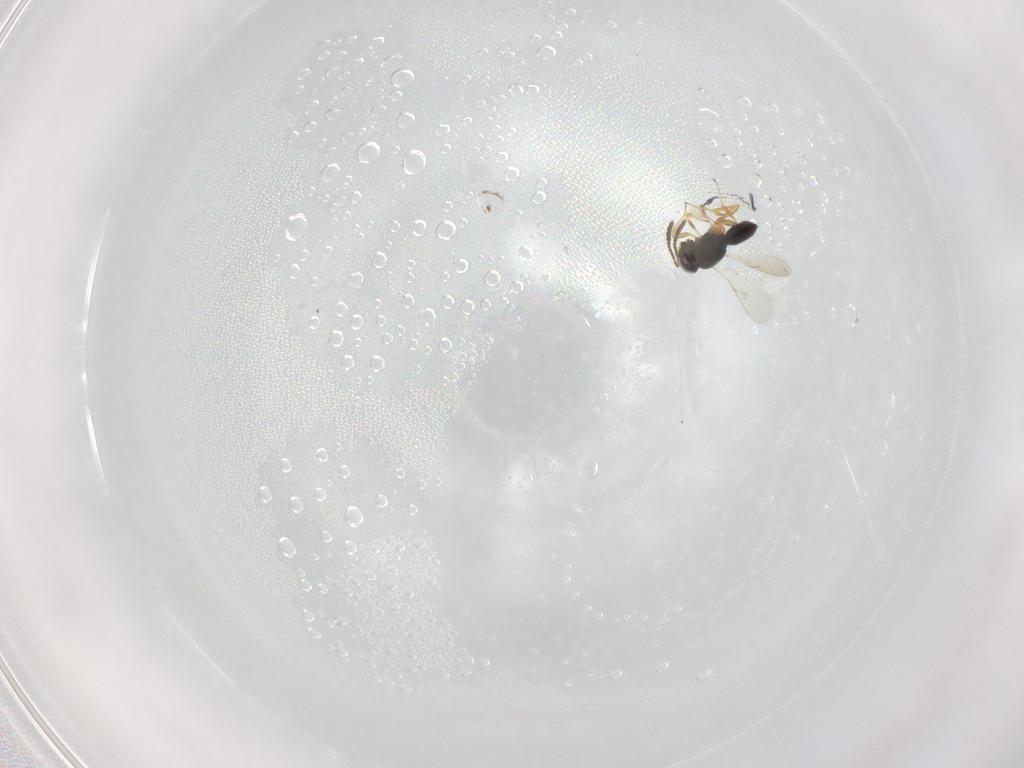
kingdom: Animalia
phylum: Arthropoda
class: Insecta
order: Hymenoptera
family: Scelionidae
